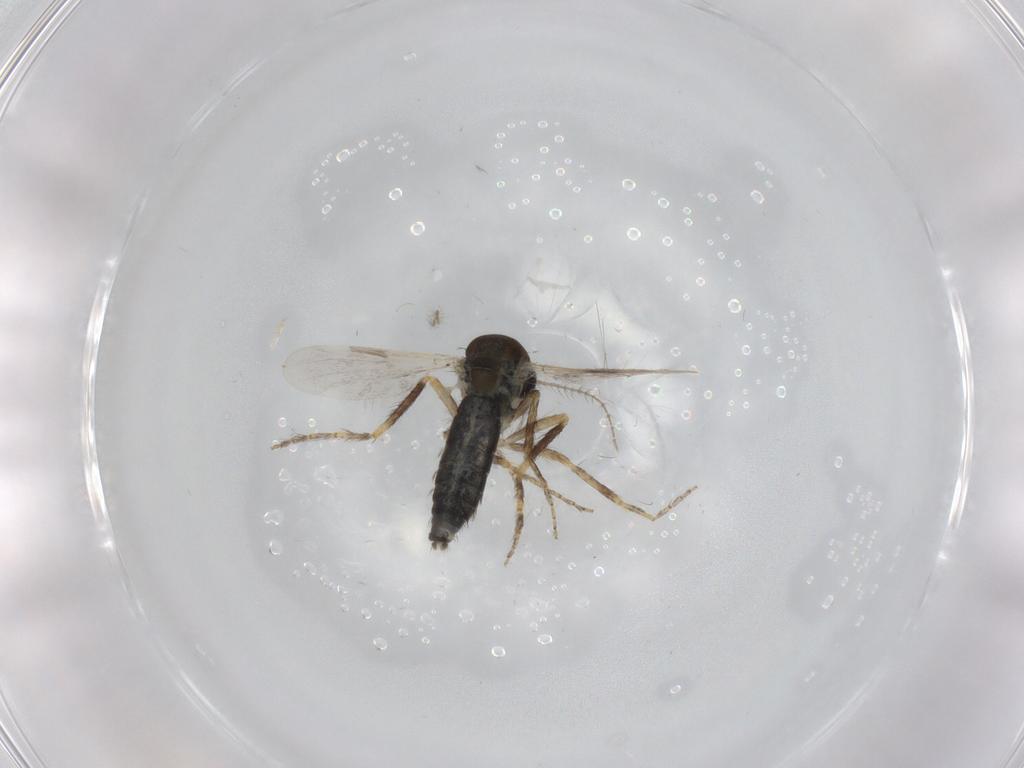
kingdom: Animalia
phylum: Arthropoda
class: Insecta
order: Diptera
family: Ceratopogonidae
